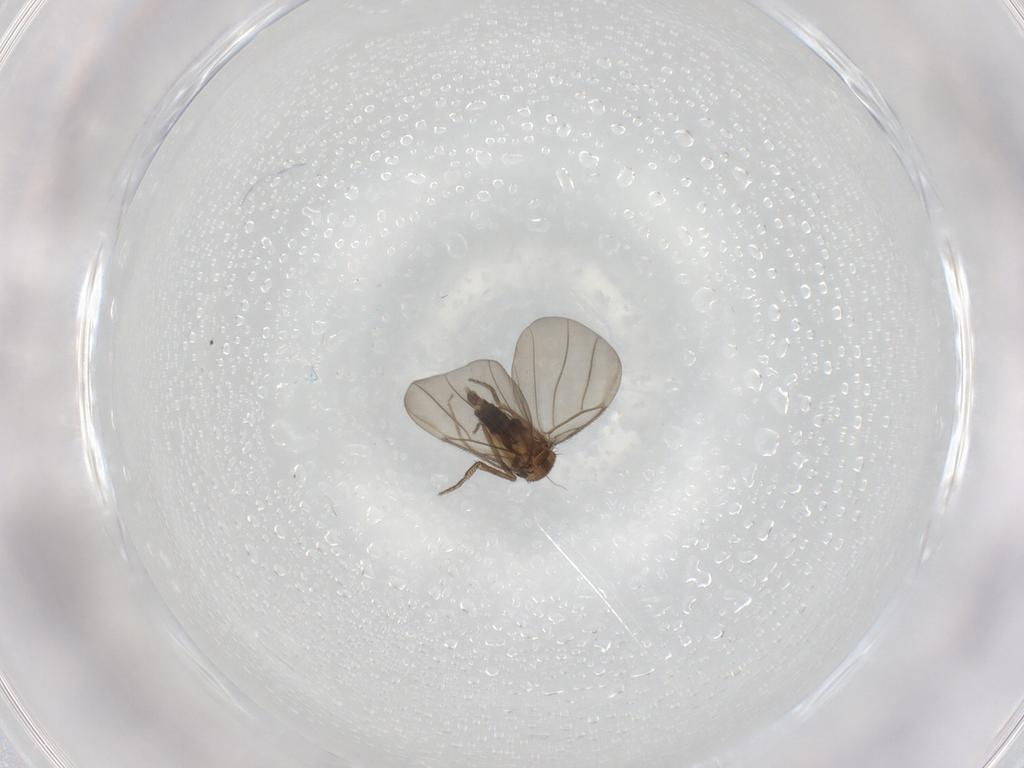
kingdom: Animalia
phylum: Arthropoda
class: Insecta
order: Diptera
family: Phoridae
